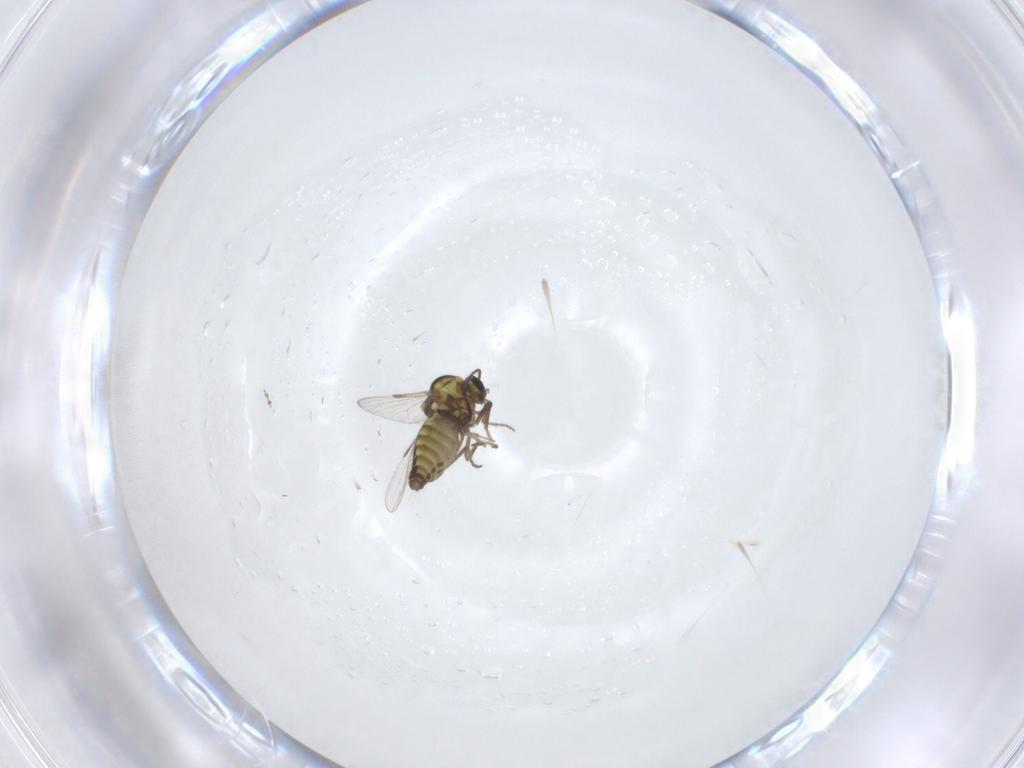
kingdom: Animalia
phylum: Arthropoda
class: Insecta
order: Diptera
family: Ceratopogonidae
